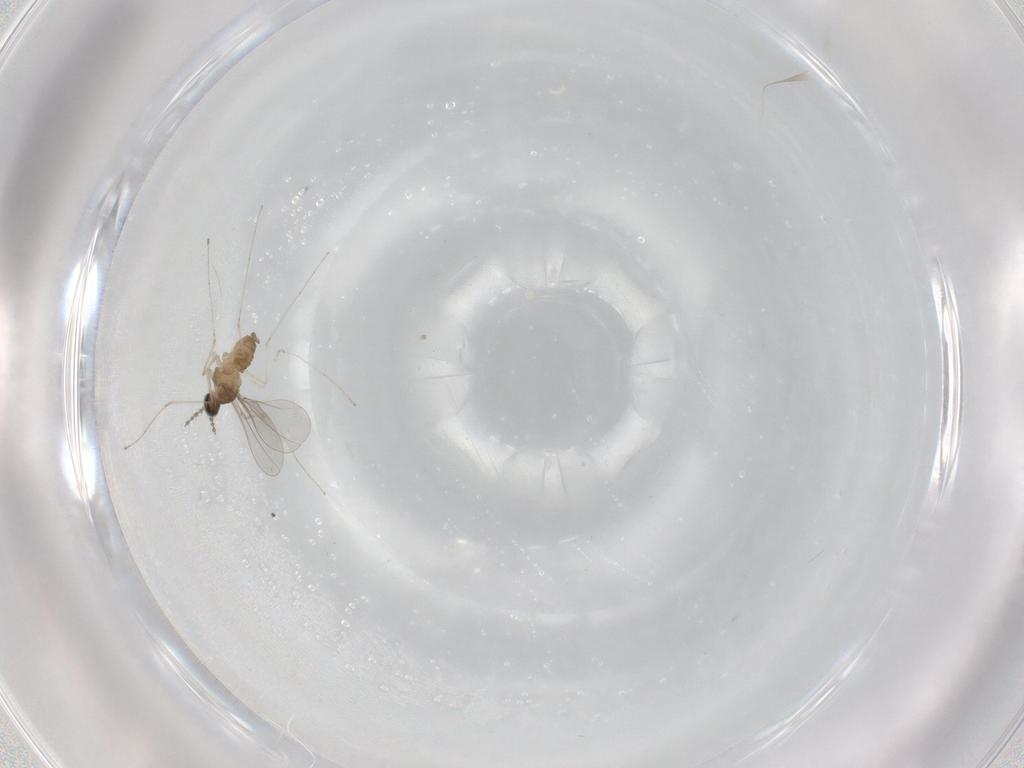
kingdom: Animalia
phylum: Arthropoda
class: Insecta
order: Diptera
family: Cecidomyiidae
